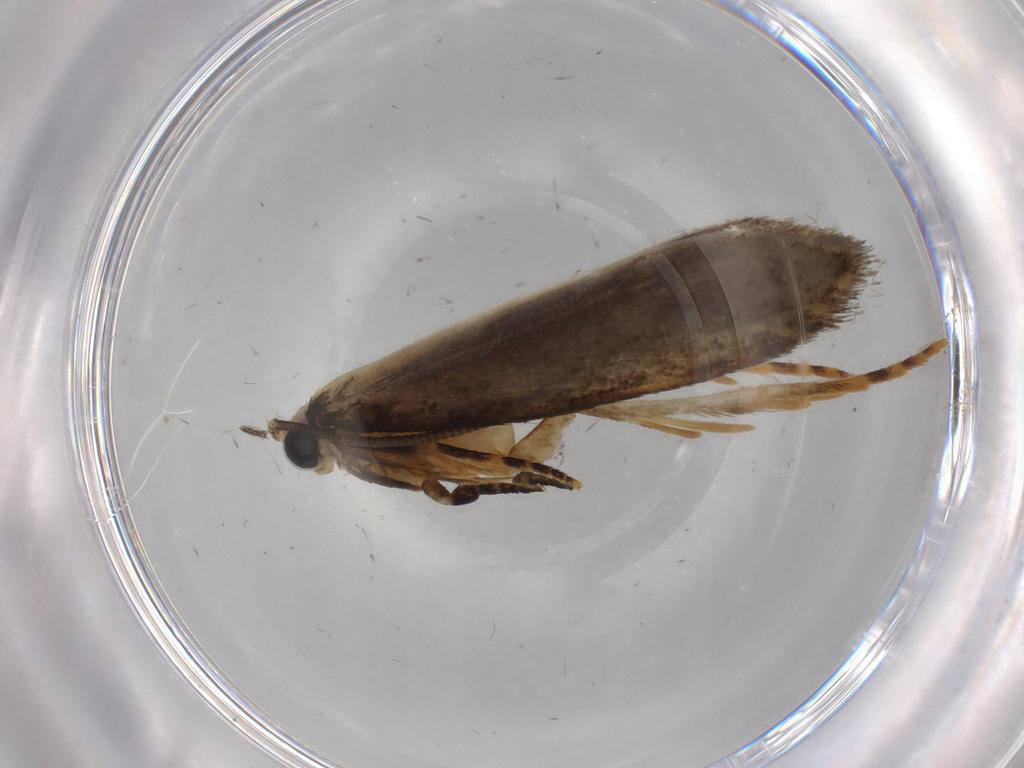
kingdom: Animalia
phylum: Arthropoda
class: Insecta
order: Lepidoptera
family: Tineidae
